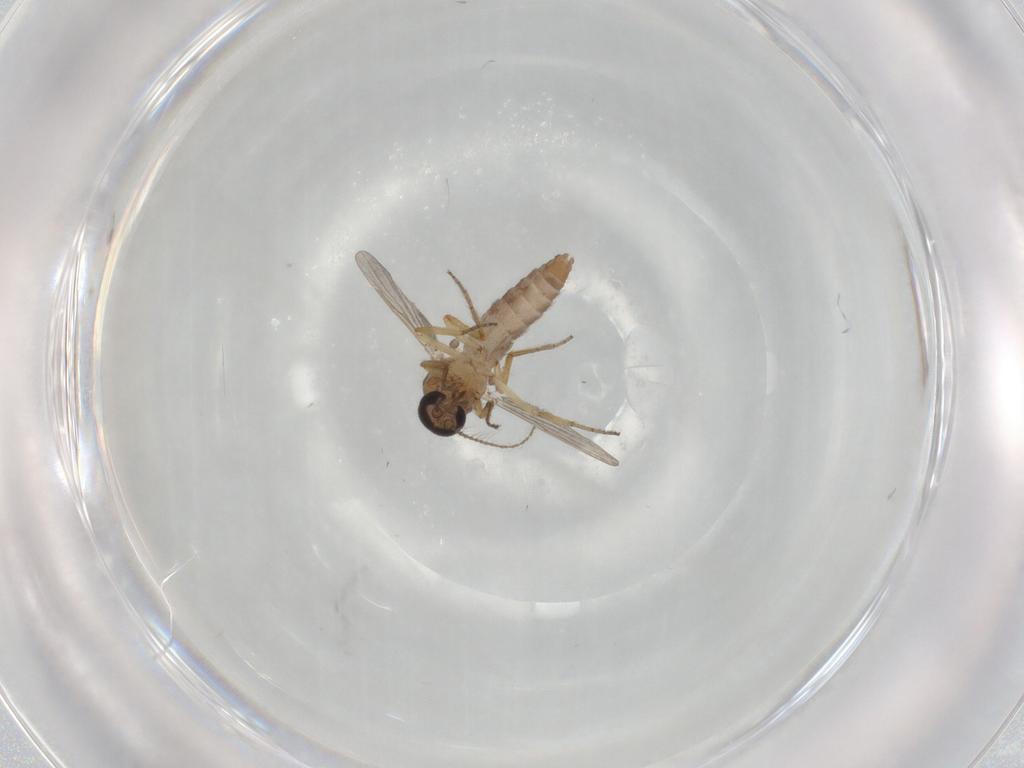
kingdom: Animalia
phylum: Arthropoda
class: Insecta
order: Diptera
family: Ceratopogonidae
